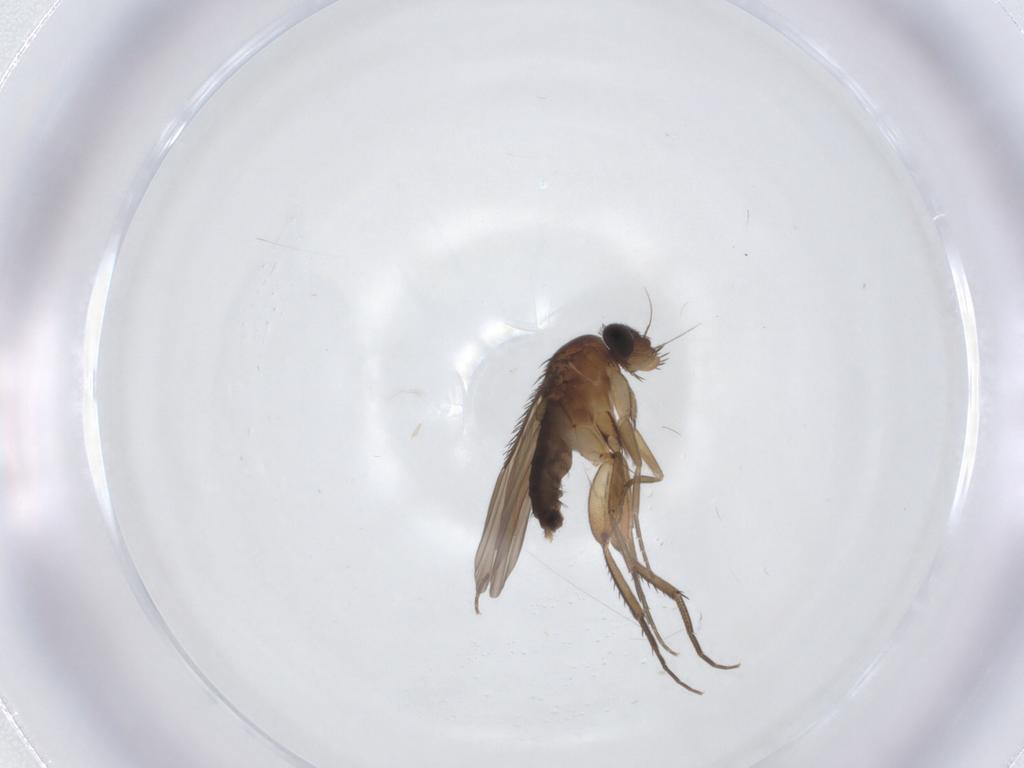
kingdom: Animalia
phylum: Arthropoda
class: Insecta
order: Diptera
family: Phoridae
